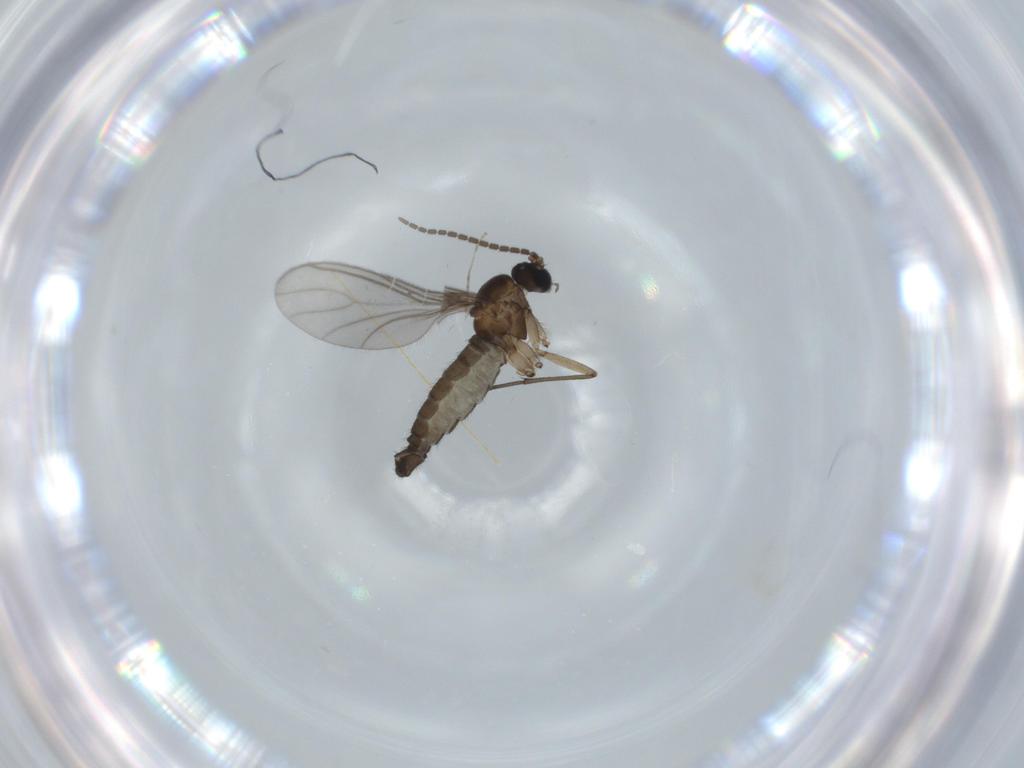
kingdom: Animalia
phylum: Arthropoda
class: Insecta
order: Diptera
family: Sciaridae
